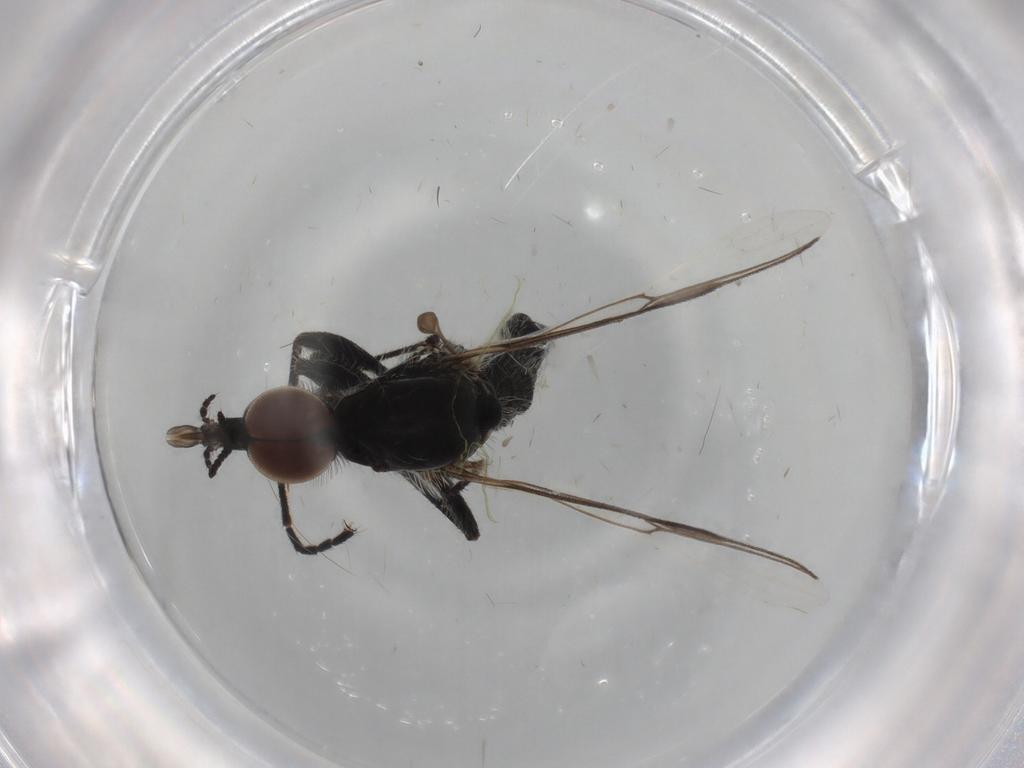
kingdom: Animalia
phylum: Arthropoda
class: Insecta
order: Diptera
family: Sciaridae
